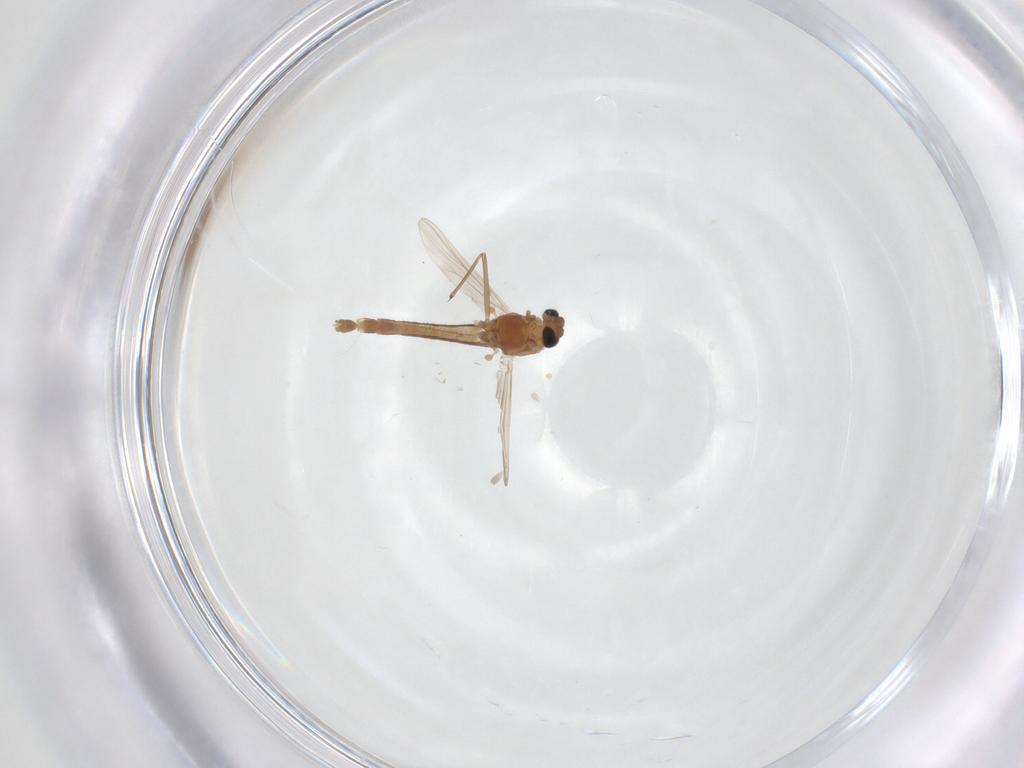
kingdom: Animalia
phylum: Arthropoda
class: Insecta
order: Diptera
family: Chironomidae
